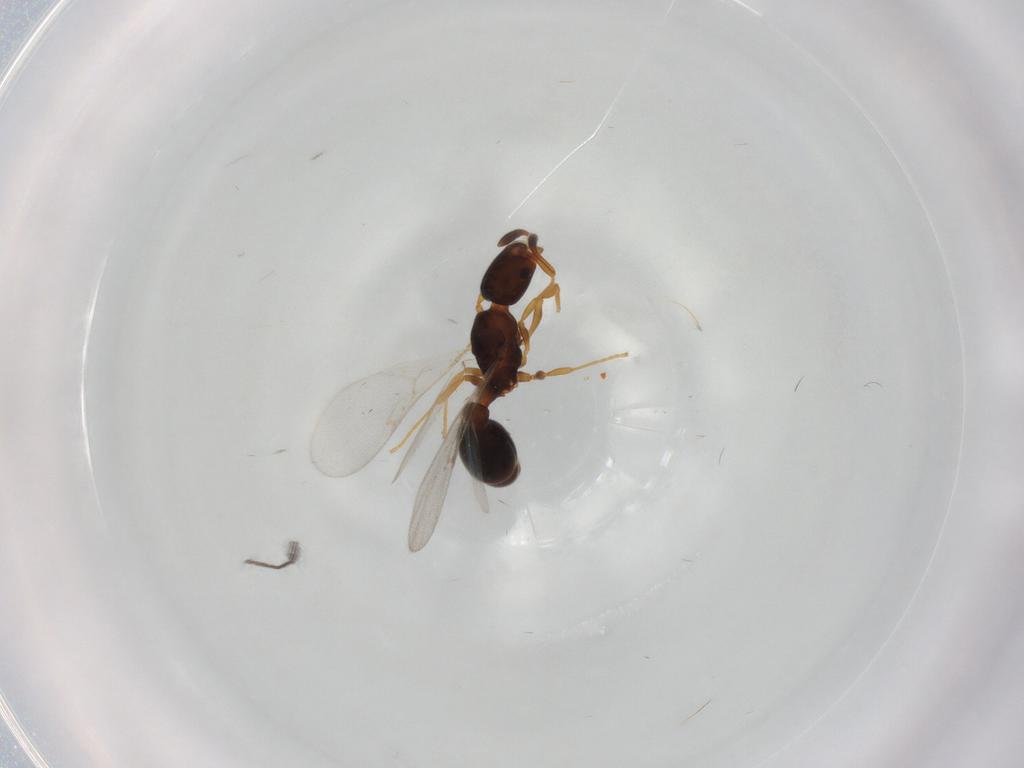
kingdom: Animalia
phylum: Arthropoda
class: Insecta
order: Hymenoptera
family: Formicidae
